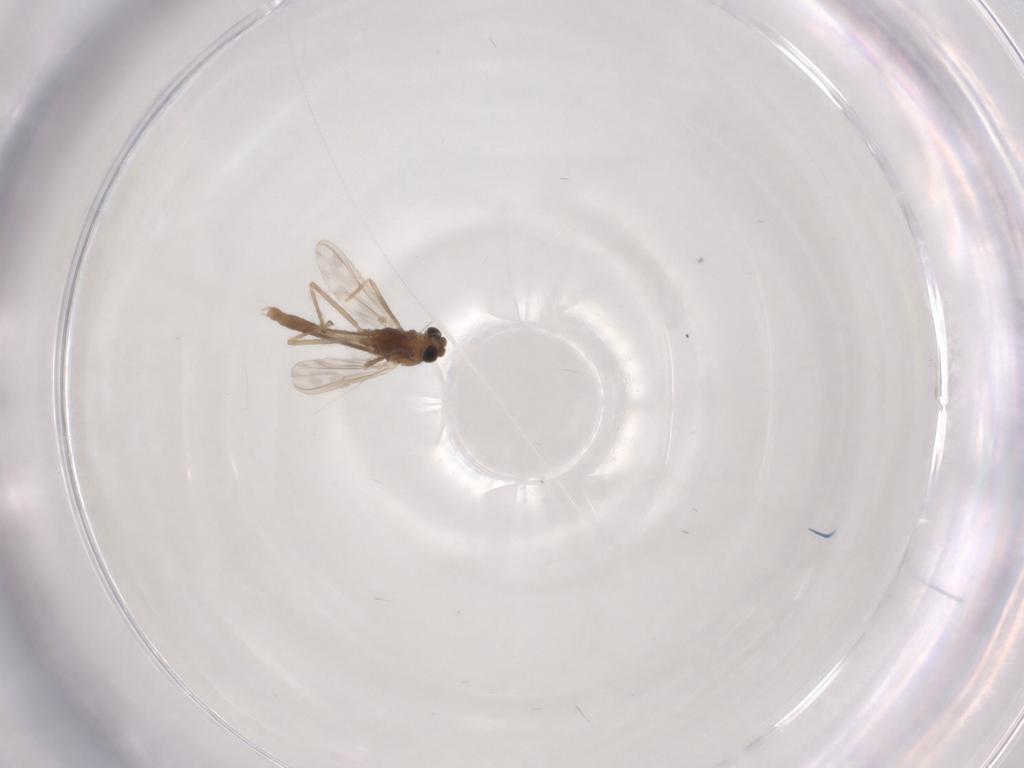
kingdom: Animalia
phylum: Arthropoda
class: Insecta
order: Diptera
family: Chironomidae
